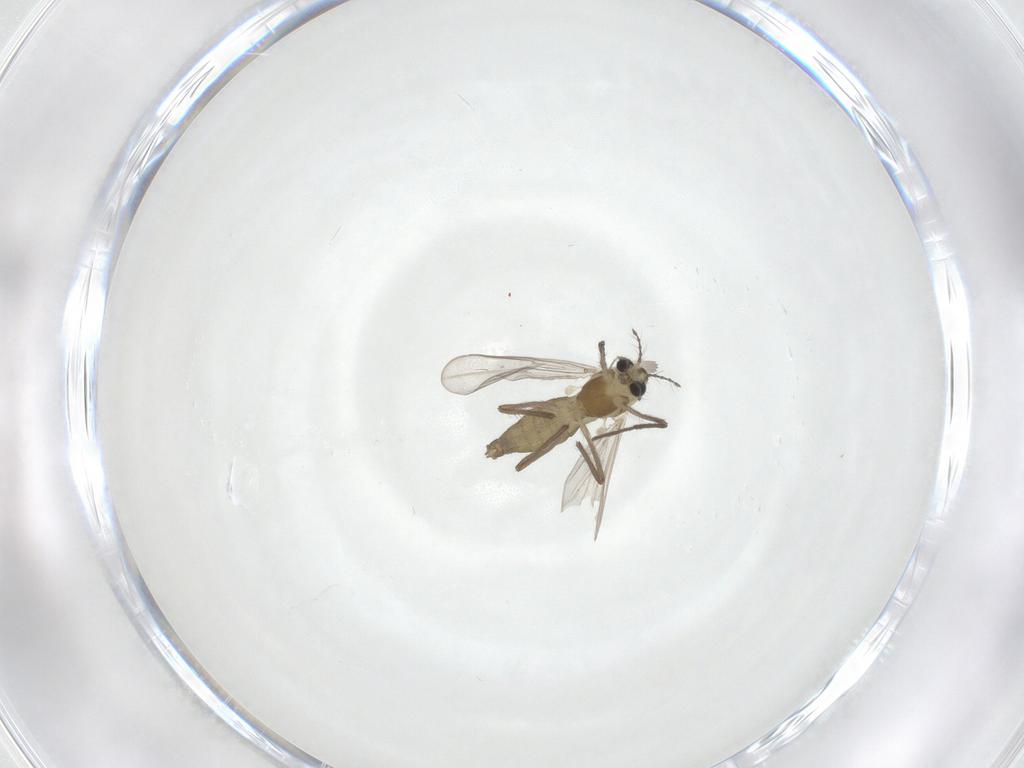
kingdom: Animalia
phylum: Arthropoda
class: Insecta
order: Diptera
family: Chironomidae
